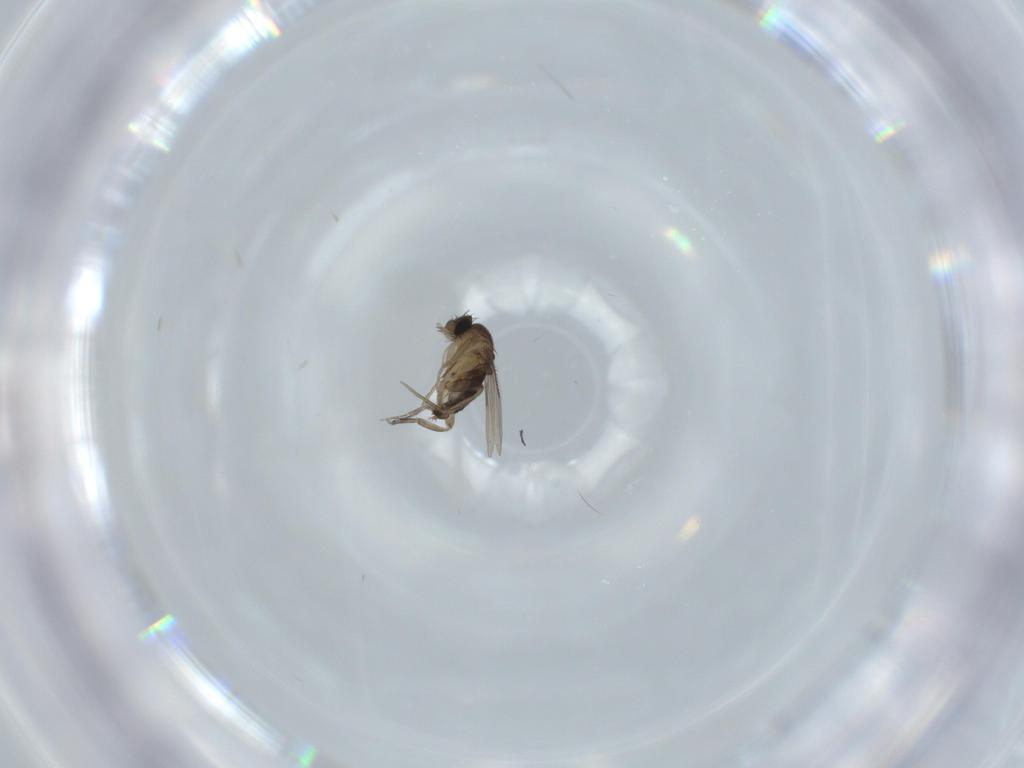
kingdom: Animalia
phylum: Arthropoda
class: Insecta
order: Diptera
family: Phoridae
